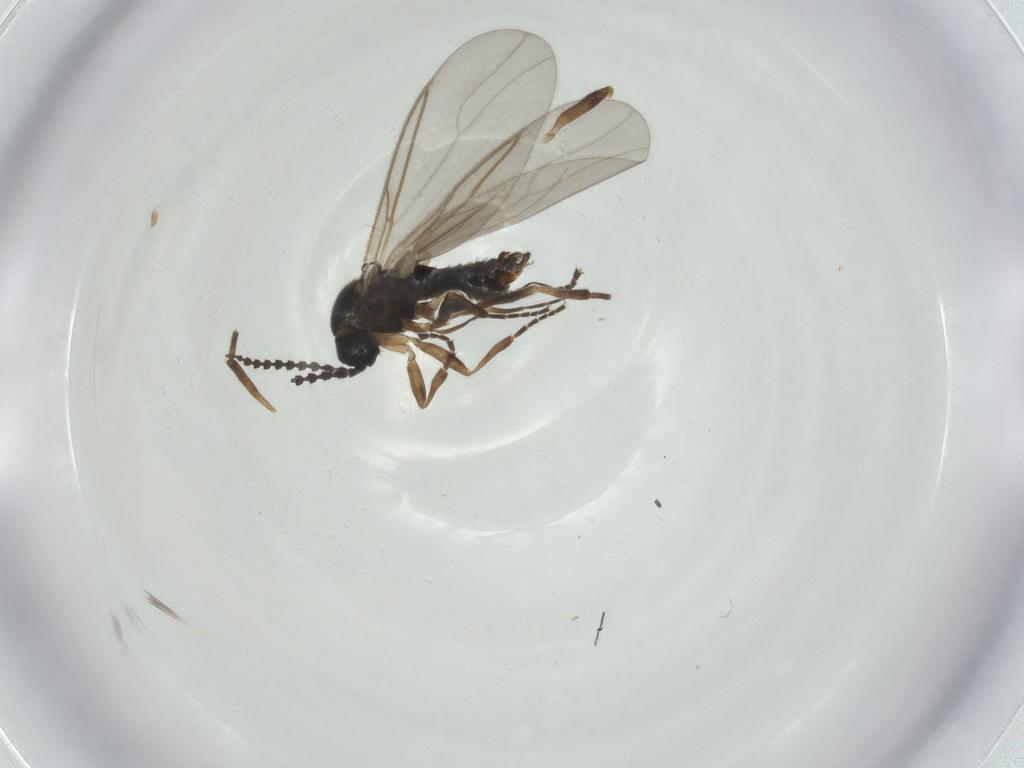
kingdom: Animalia
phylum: Arthropoda
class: Insecta
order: Diptera
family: Scatopsidae
